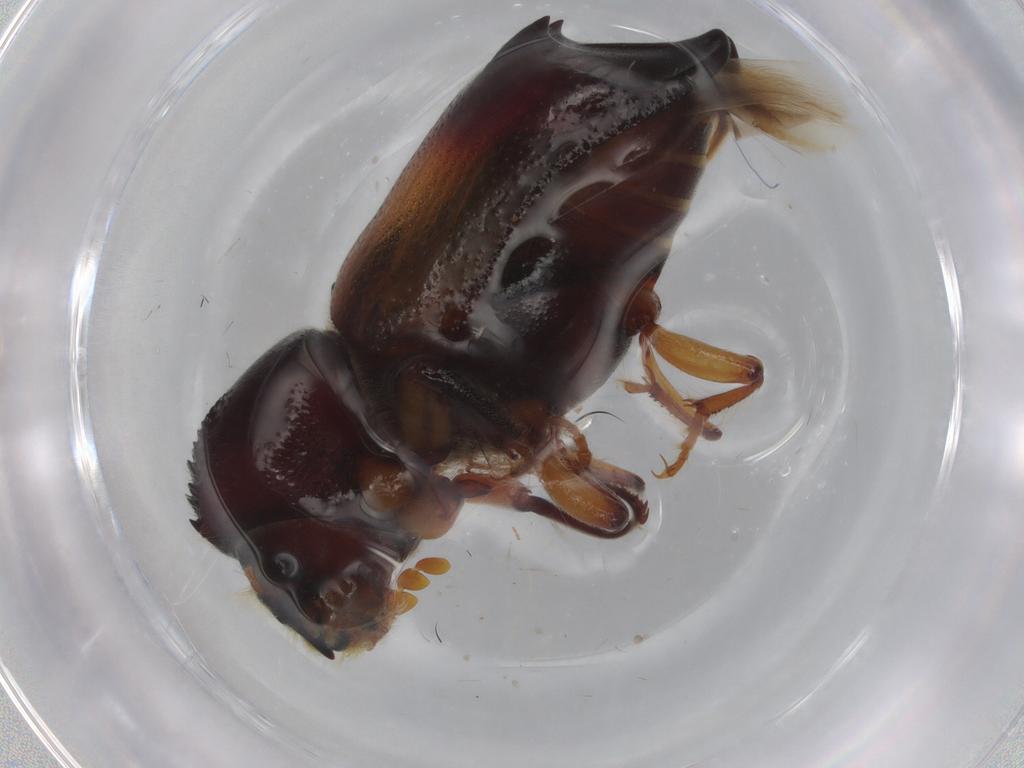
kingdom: Animalia
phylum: Arthropoda
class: Insecta
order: Coleoptera
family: Bostrichidae
